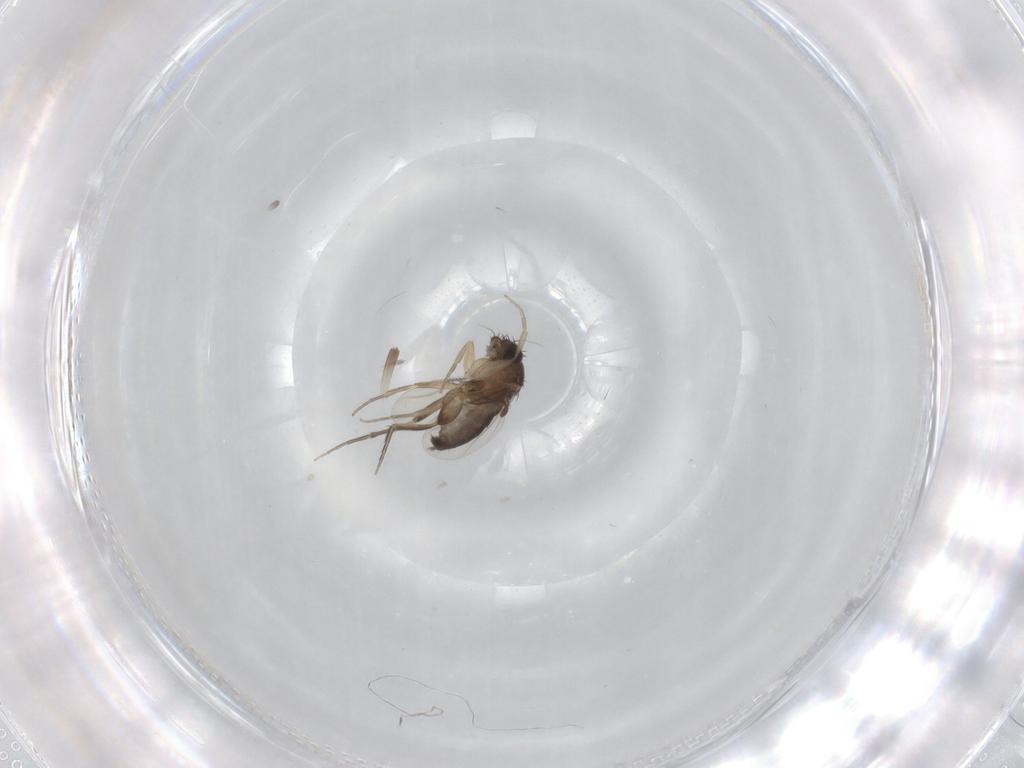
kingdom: Animalia
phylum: Arthropoda
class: Insecta
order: Diptera
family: Phoridae
